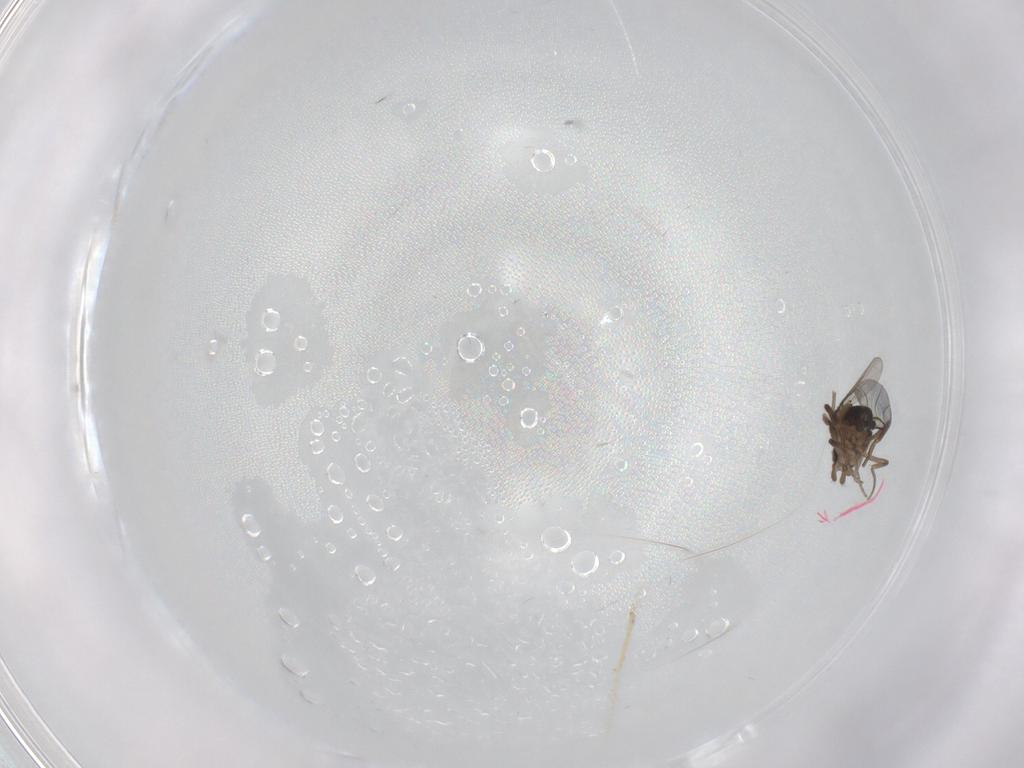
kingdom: Animalia
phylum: Arthropoda
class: Insecta
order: Diptera
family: Phoridae
